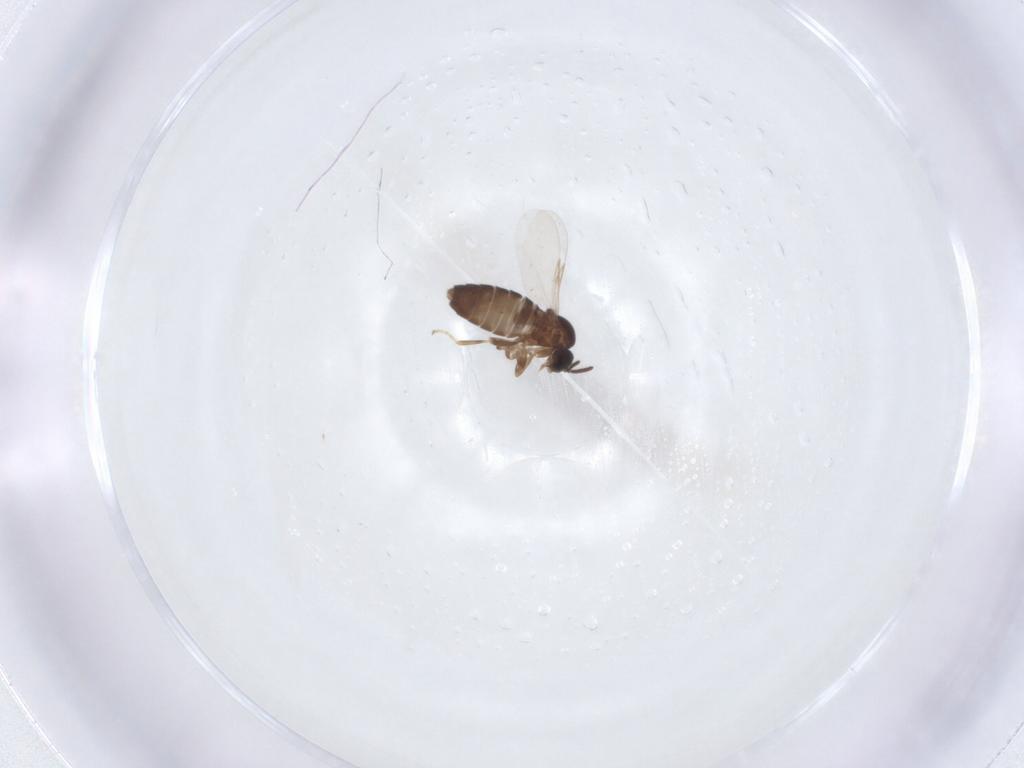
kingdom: Animalia
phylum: Arthropoda
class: Insecta
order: Diptera
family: Scatopsidae
